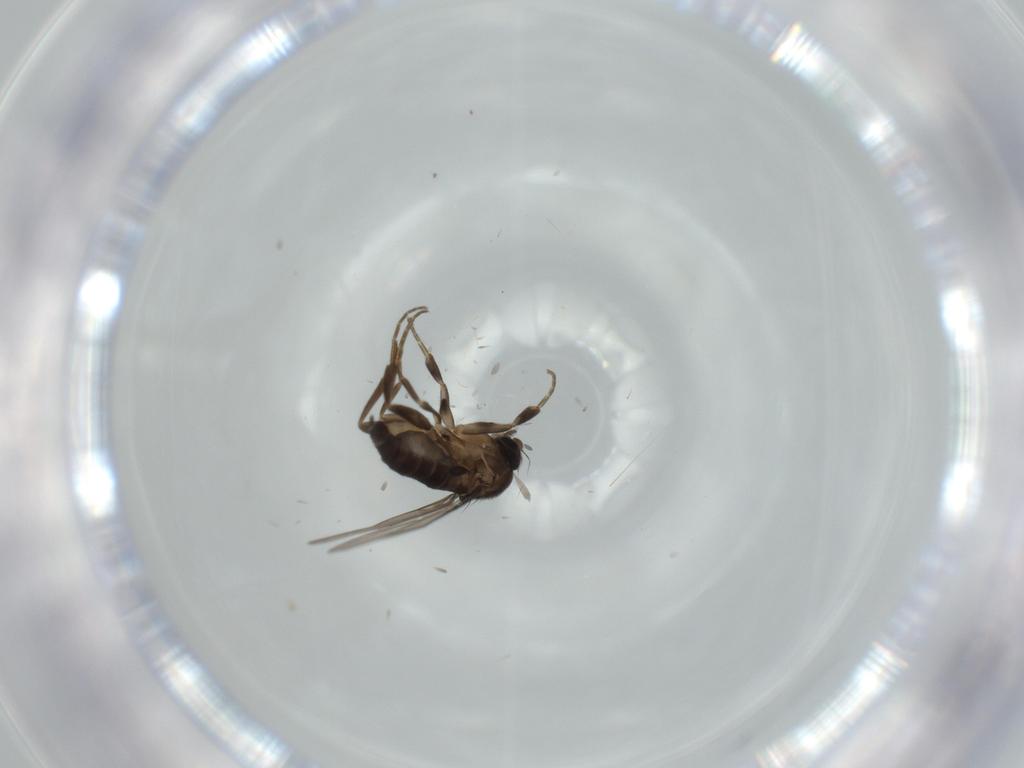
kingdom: Animalia
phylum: Arthropoda
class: Insecta
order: Diptera
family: Phoridae
